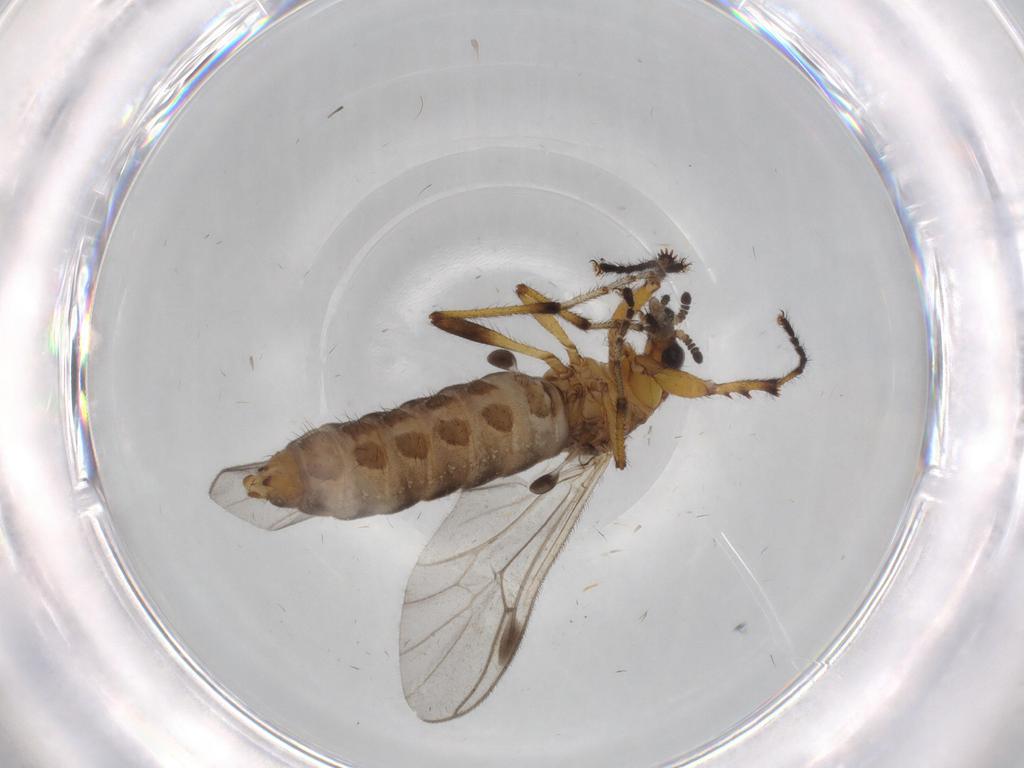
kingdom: Animalia
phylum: Arthropoda
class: Insecta
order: Diptera
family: Bibionidae
